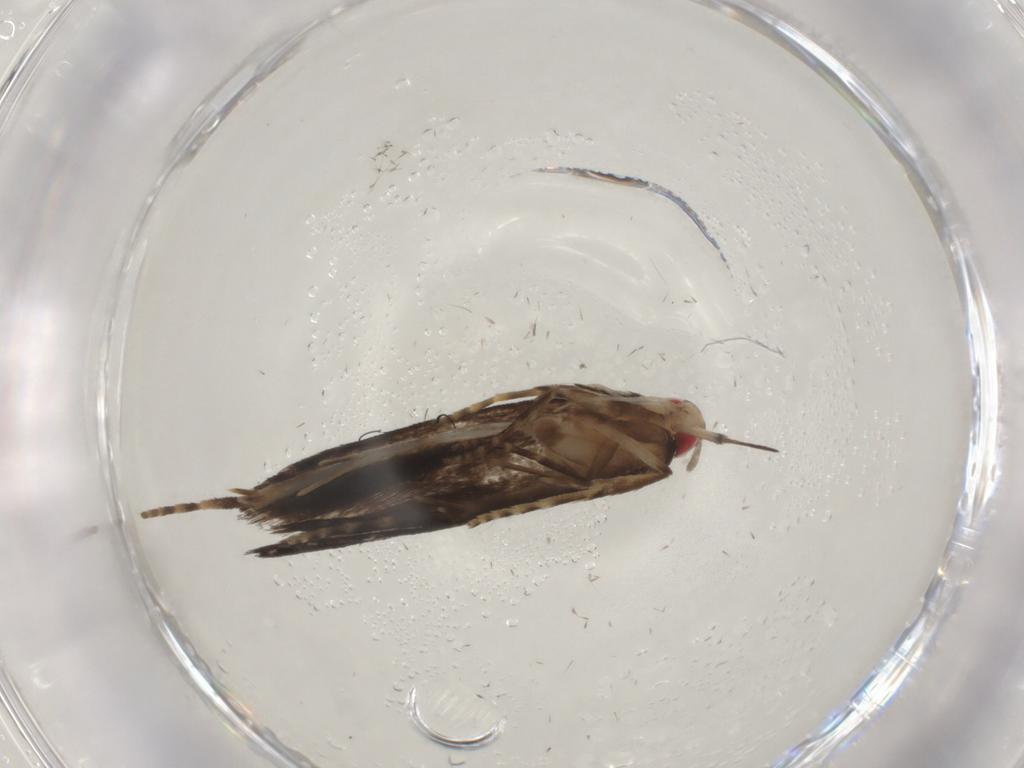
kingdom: Animalia
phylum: Arthropoda
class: Insecta
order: Lepidoptera
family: Gelechiidae
